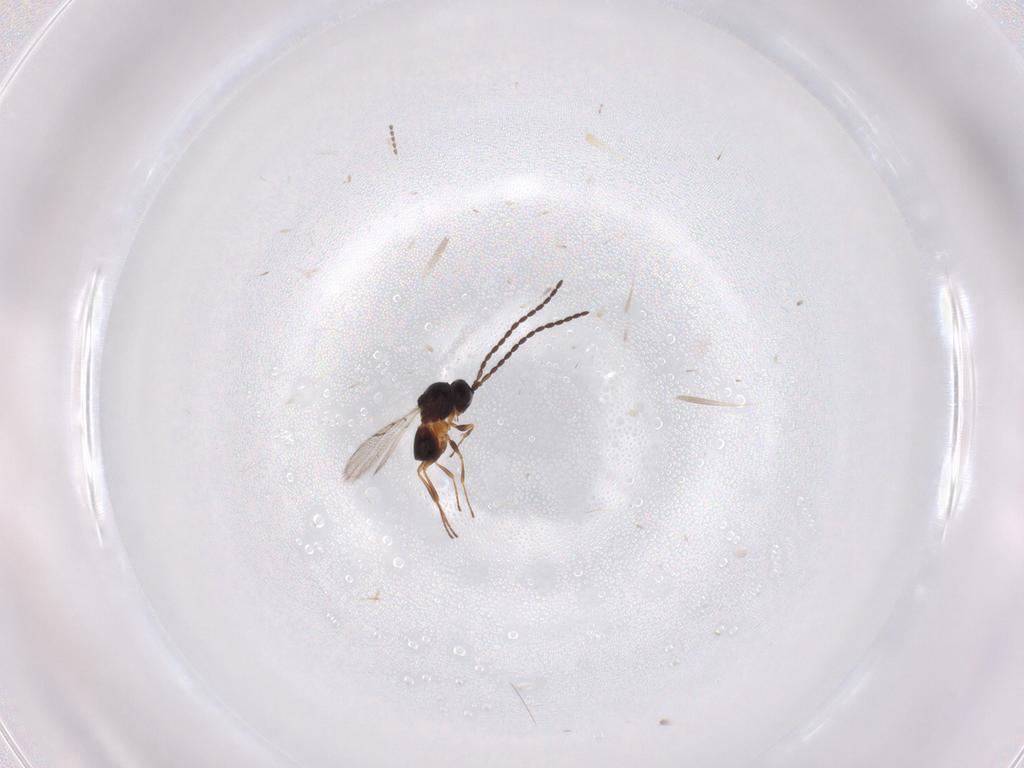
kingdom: Animalia
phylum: Arthropoda
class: Insecta
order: Hymenoptera
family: Figitidae
